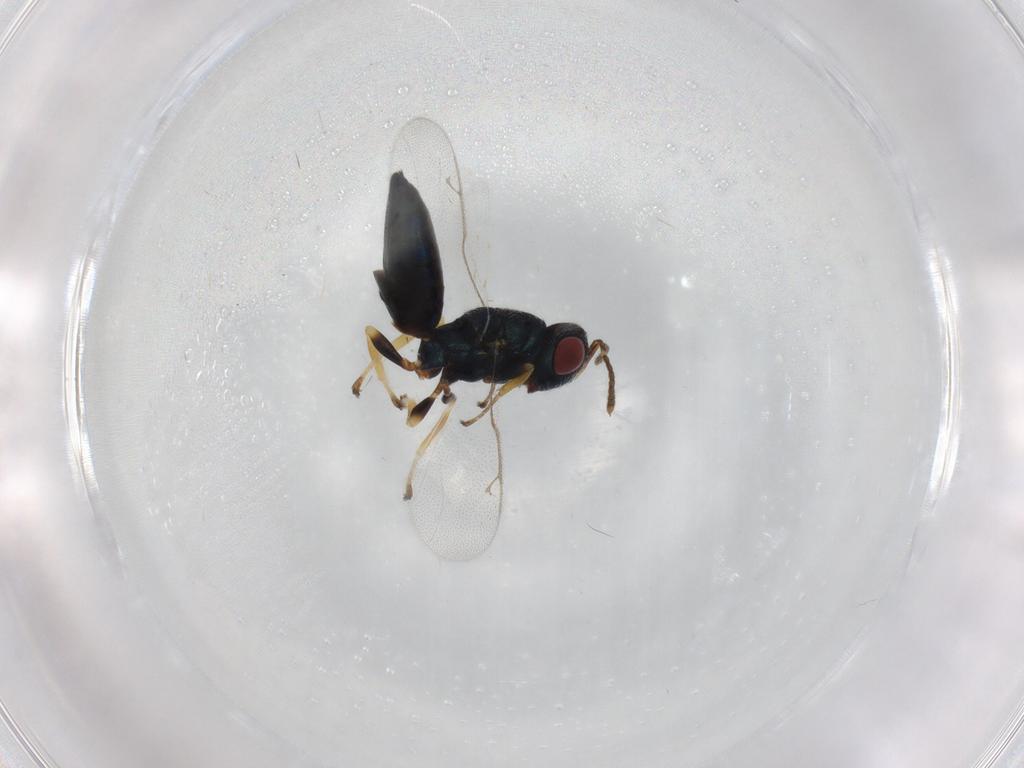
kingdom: Animalia
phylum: Arthropoda
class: Insecta
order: Hymenoptera
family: Pteromalidae
